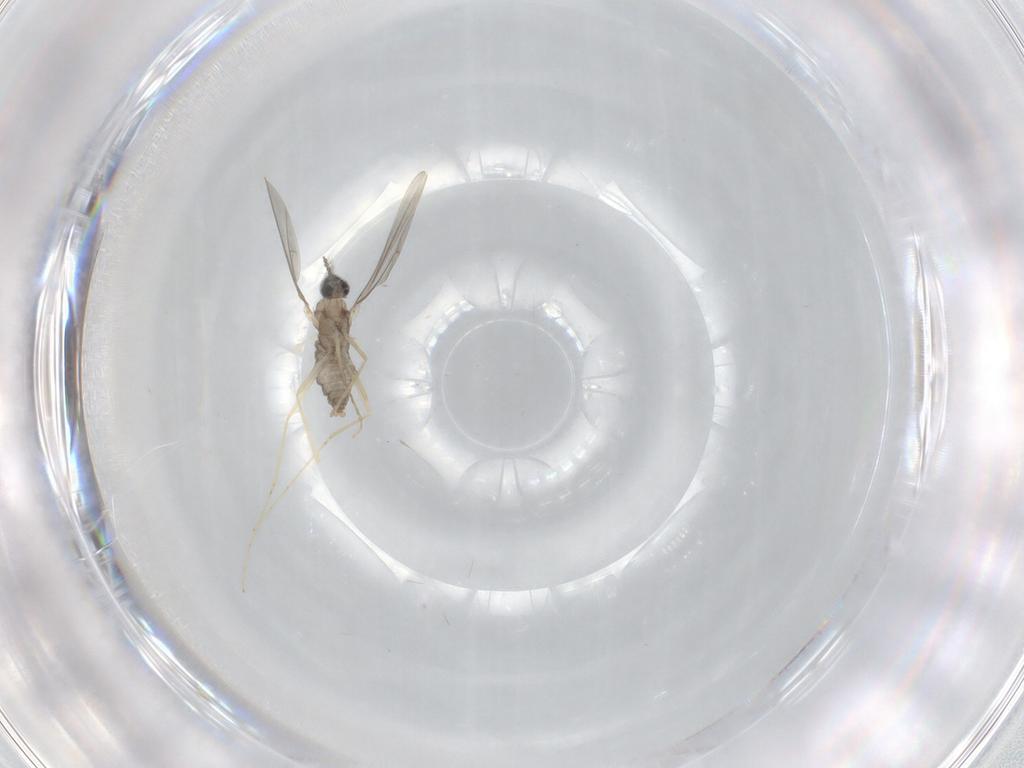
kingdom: Animalia
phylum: Arthropoda
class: Insecta
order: Diptera
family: Cecidomyiidae
